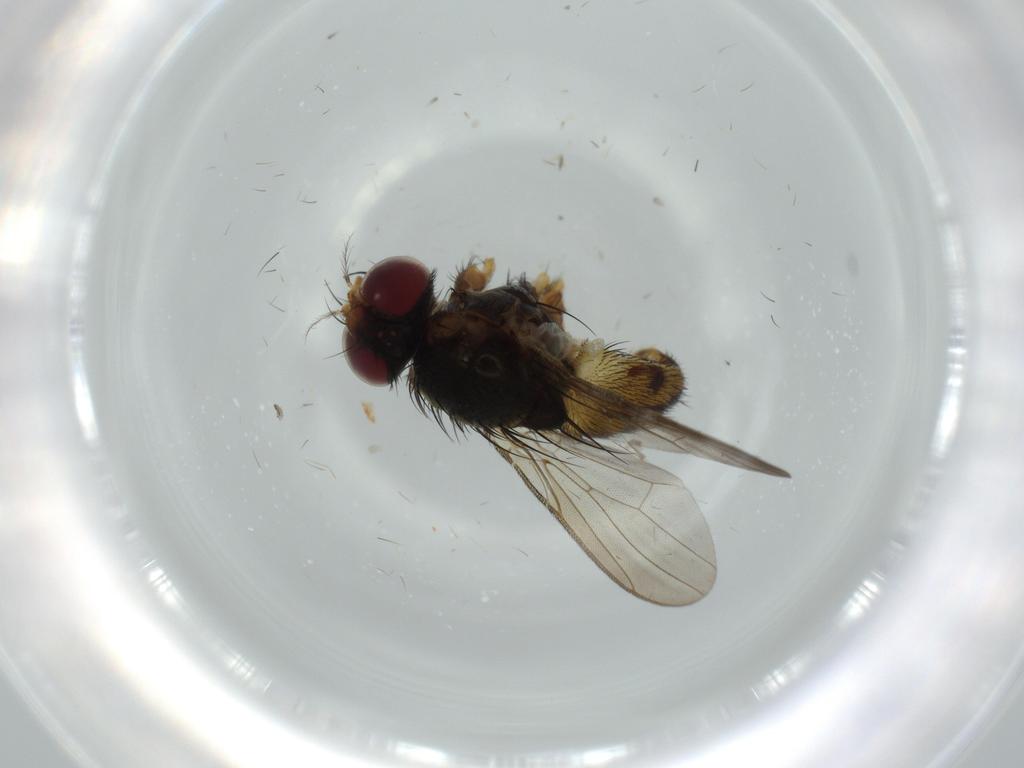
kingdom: Animalia
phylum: Arthropoda
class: Insecta
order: Diptera
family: Anthomyiidae
